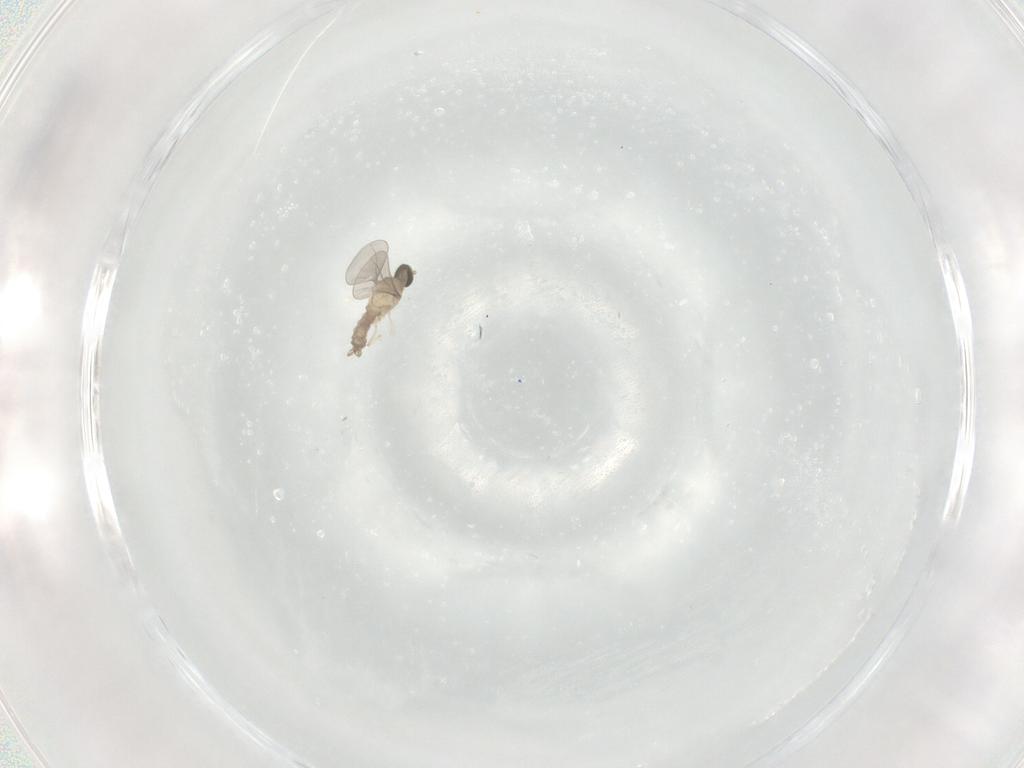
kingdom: Animalia
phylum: Arthropoda
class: Insecta
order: Diptera
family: Cecidomyiidae
